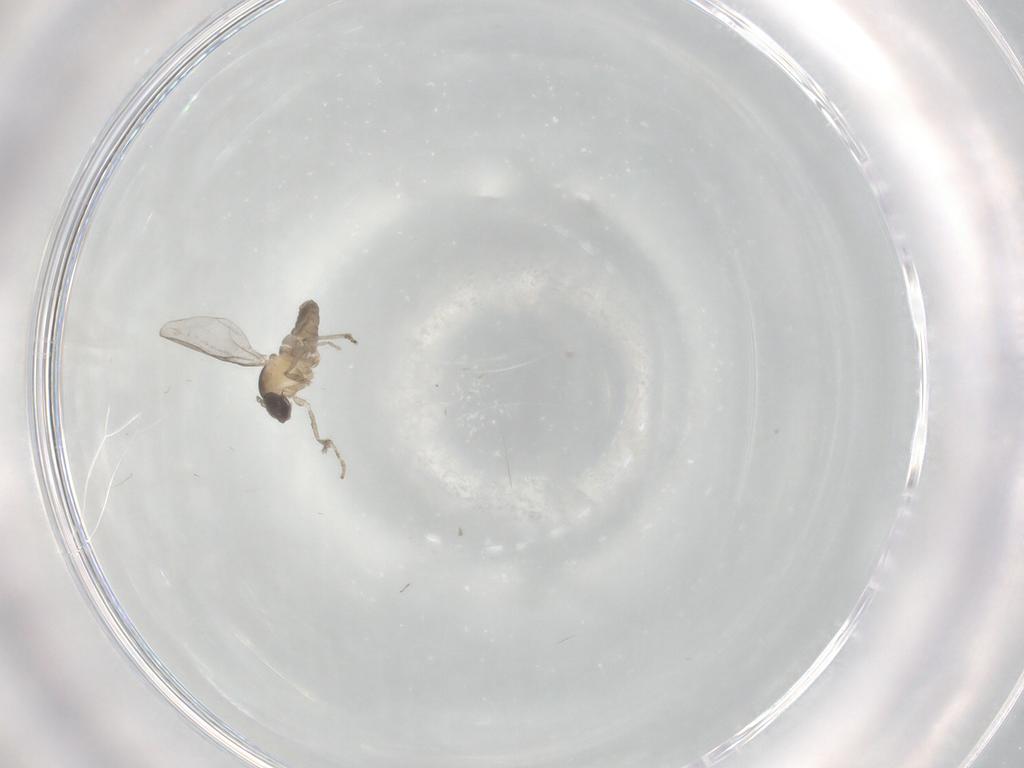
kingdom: Animalia
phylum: Arthropoda
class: Insecta
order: Diptera
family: Cecidomyiidae
